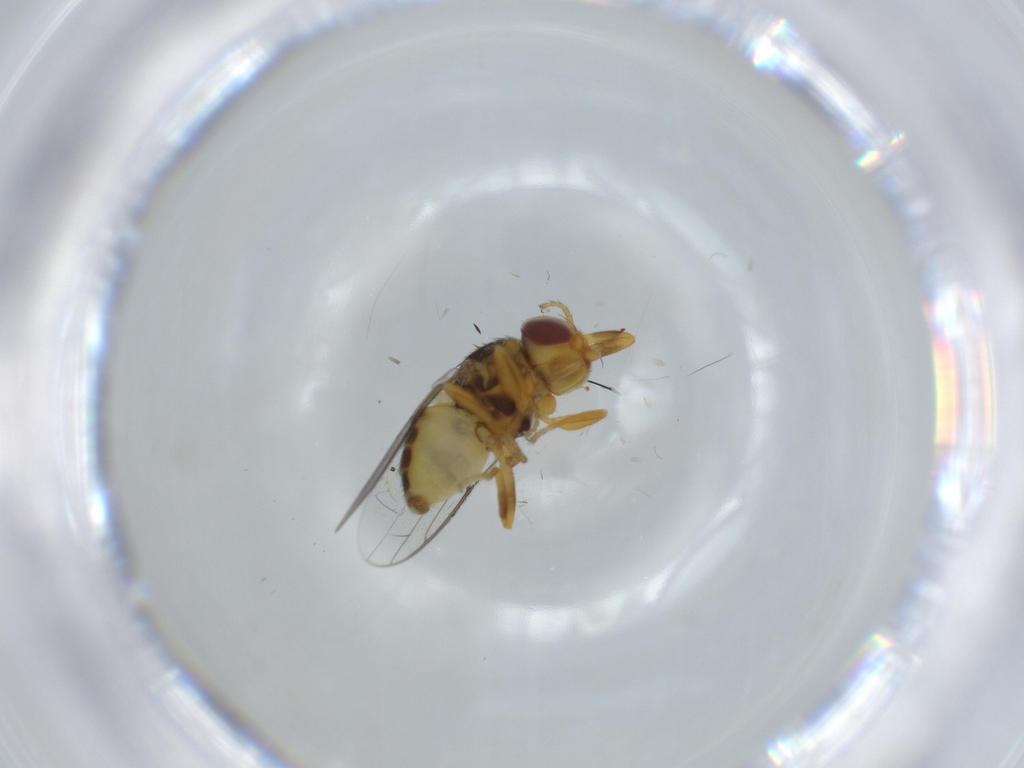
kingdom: Animalia
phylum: Arthropoda
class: Insecta
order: Diptera
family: Chloropidae
